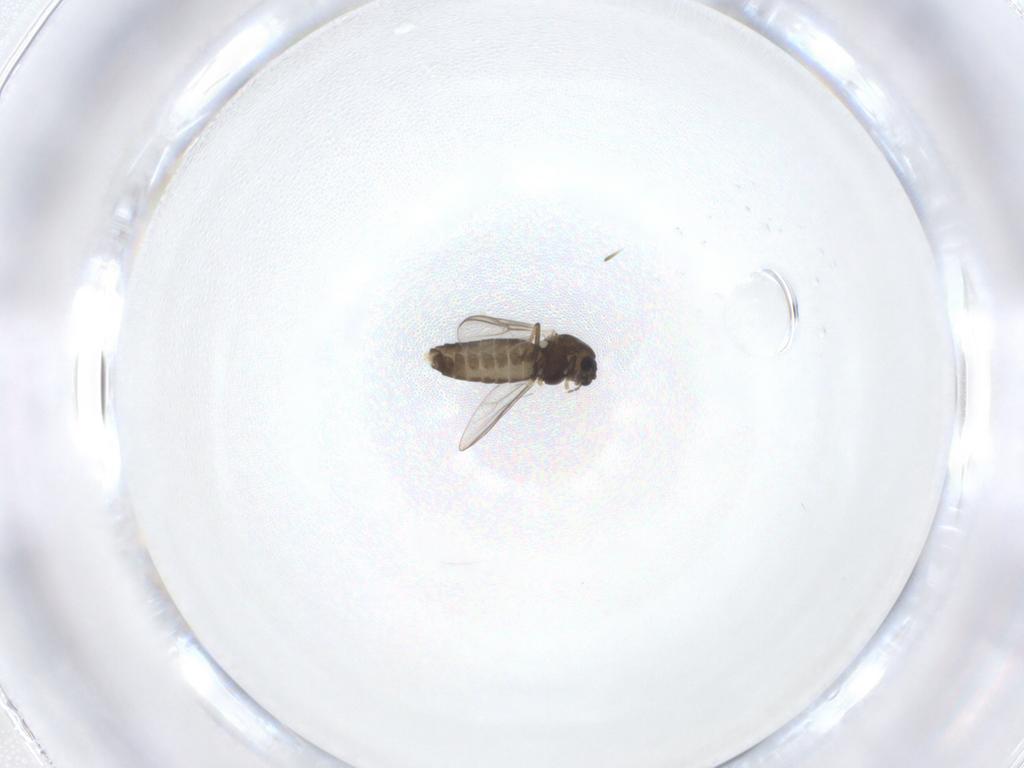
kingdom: Animalia
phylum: Arthropoda
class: Insecta
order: Diptera
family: Chironomidae
